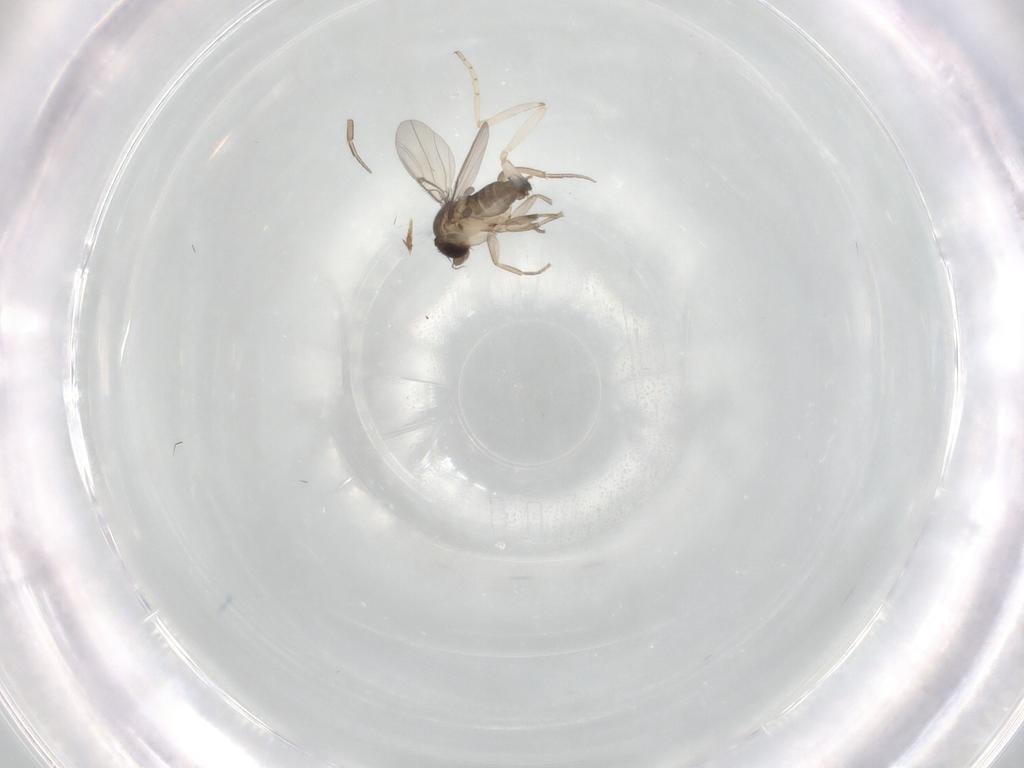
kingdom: Animalia
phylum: Arthropoda
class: Insecta
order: Diptera
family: Phoridae
